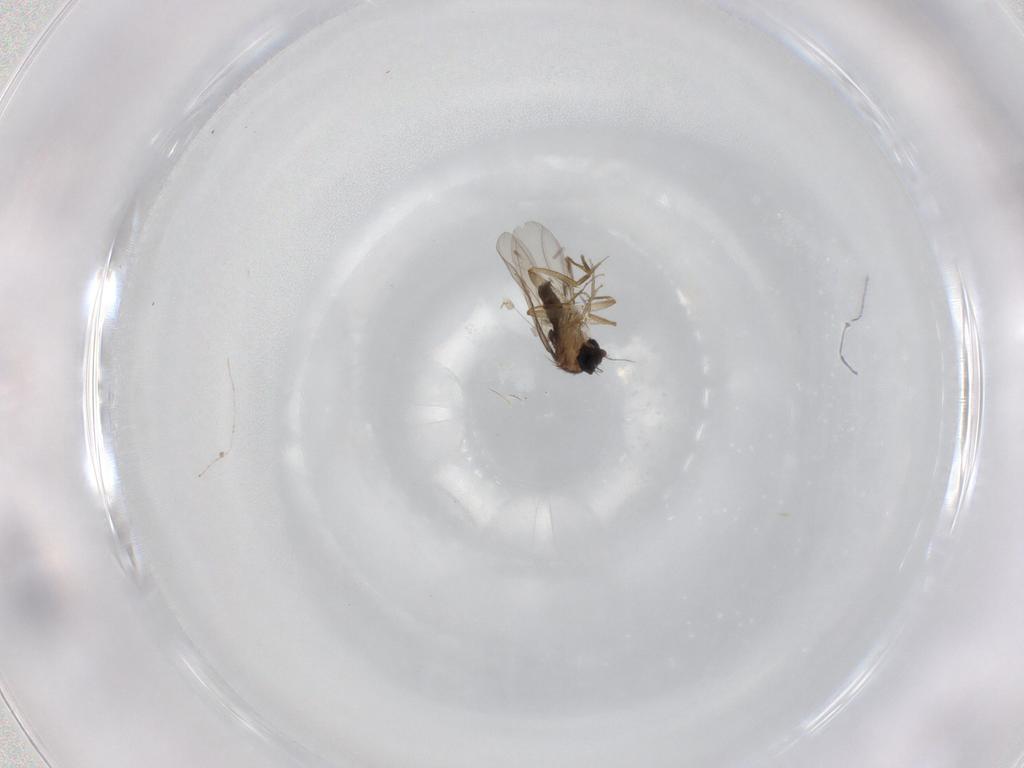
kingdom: Animalia
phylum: Arthropoda
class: Insecta
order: Diptera
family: Phoridae
